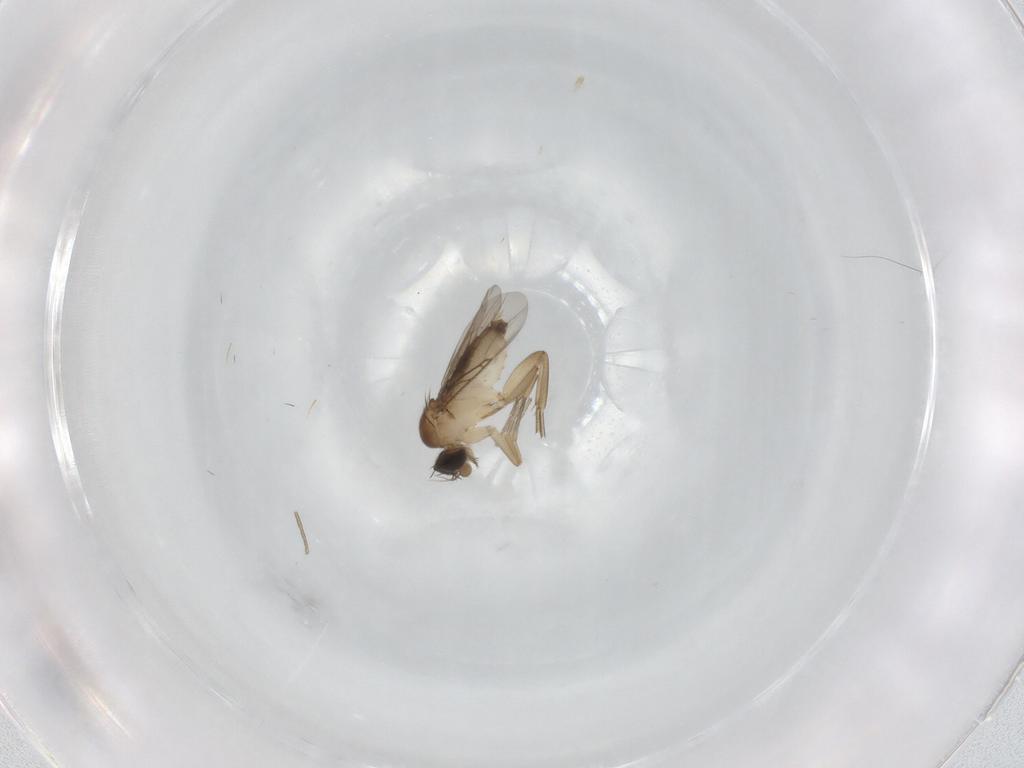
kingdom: Animalia
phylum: Arthropoda
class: Insecta
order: Diptera
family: Phoridae
